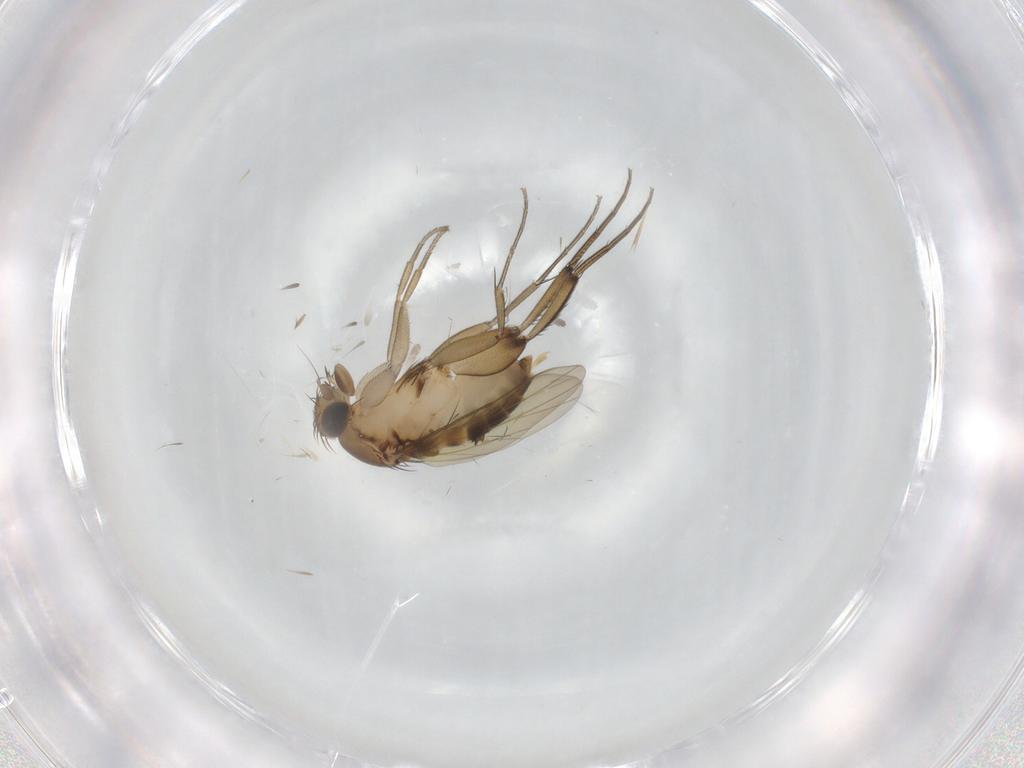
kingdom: Animalia
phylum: Arthropoda
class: Insecta
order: Diptera
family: Phoridae
